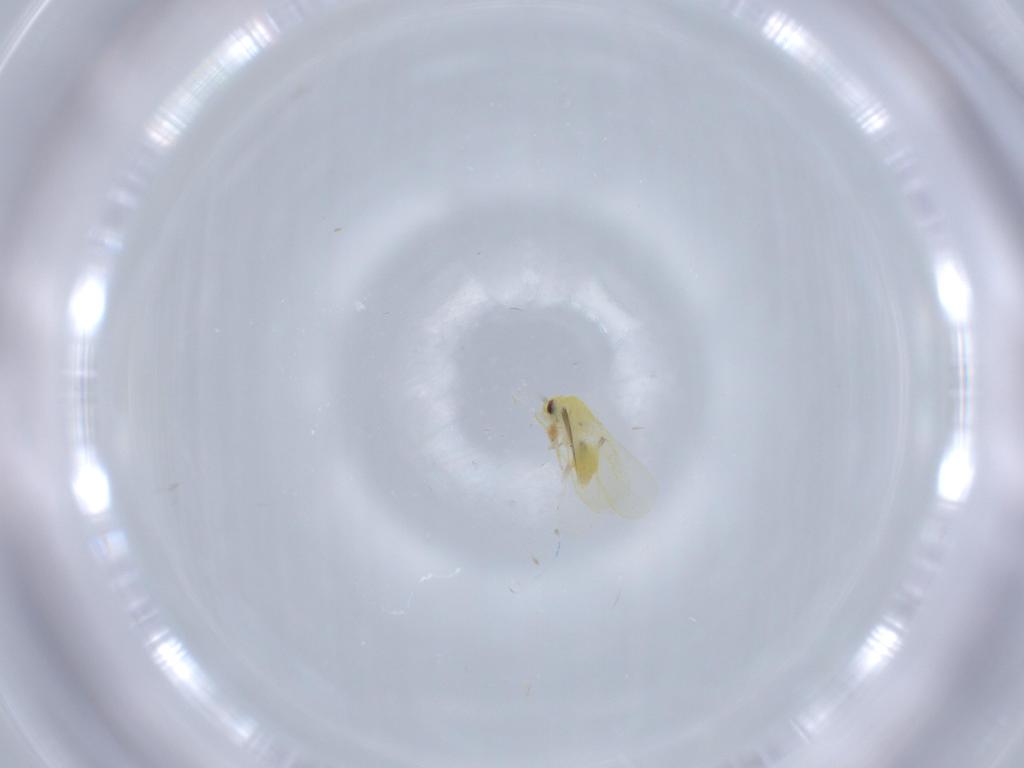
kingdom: Animalia
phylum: Arthropoda
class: Insecta
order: Hemiptera
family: Aleyrodidae
